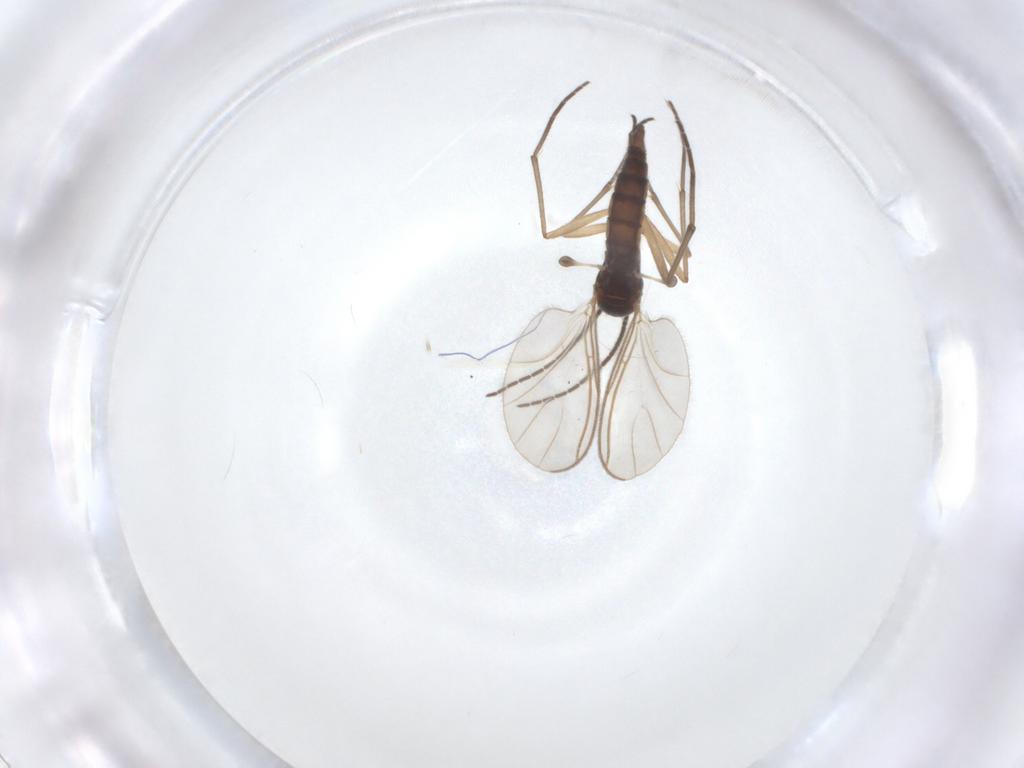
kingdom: Animalia
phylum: Arthropoda
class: Insecta
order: Diptera
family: Sciaridae
